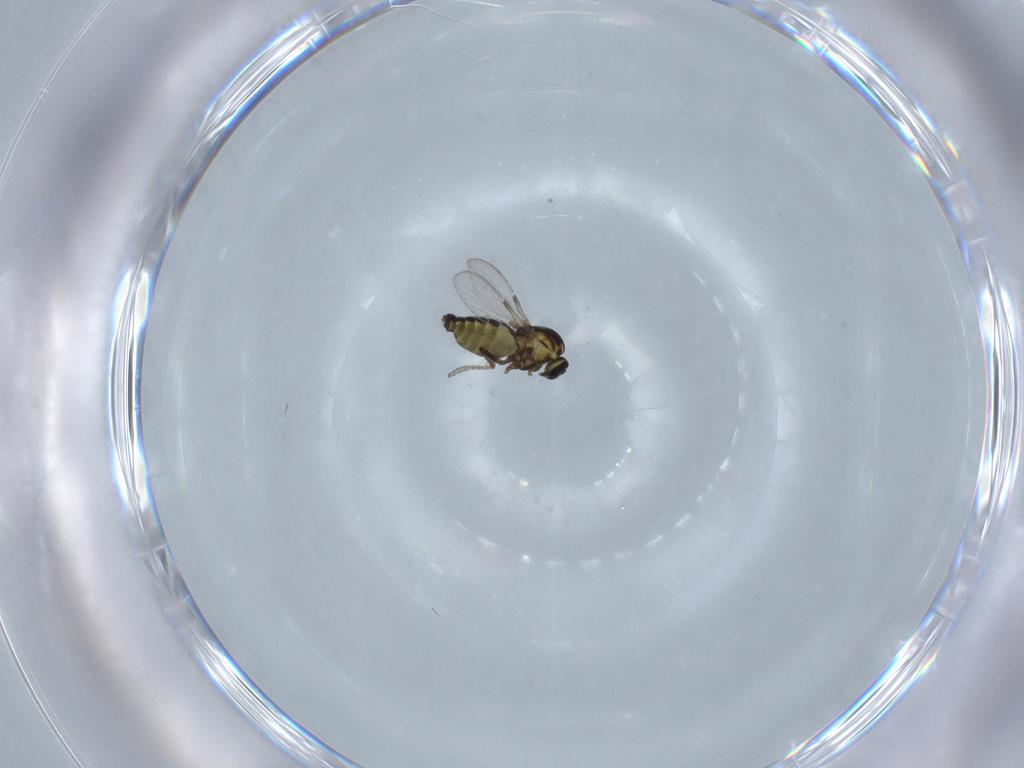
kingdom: Animalia
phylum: Arthropoda
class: Insecta
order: Diptera
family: Ceratopogonidae
